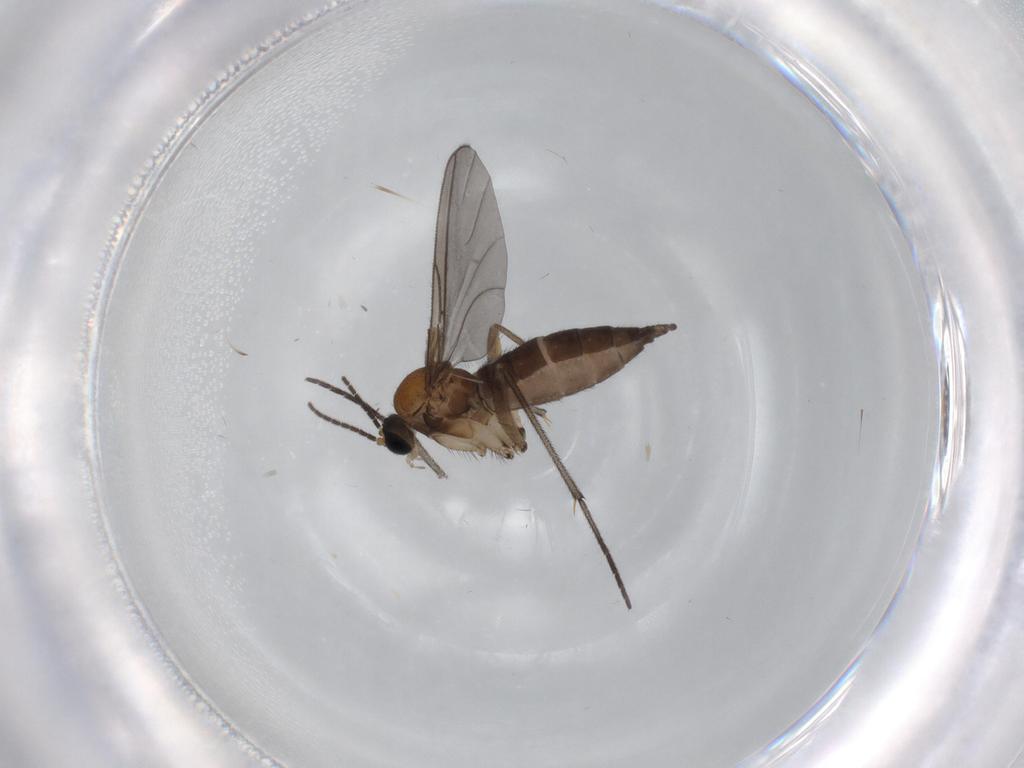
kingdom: Animalia
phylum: Arthropoda
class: Insecta
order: Diptera
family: Sciaridae
